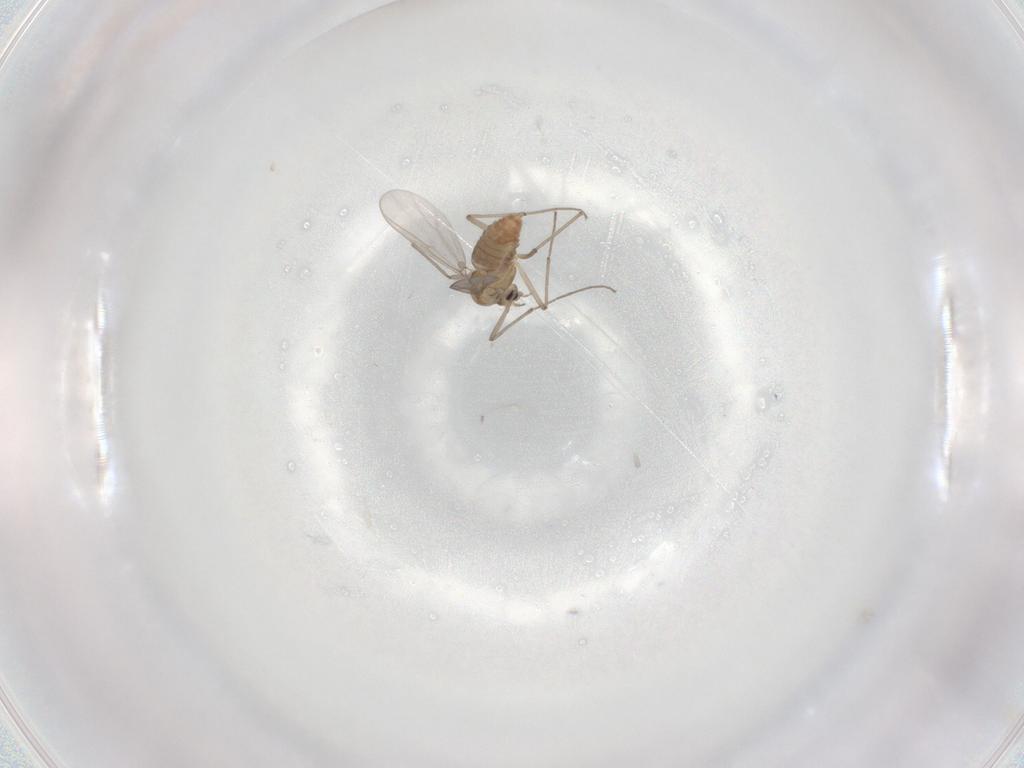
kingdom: Animalia
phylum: Arthropoda
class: Insecta
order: Diptera
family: Chironomidae
